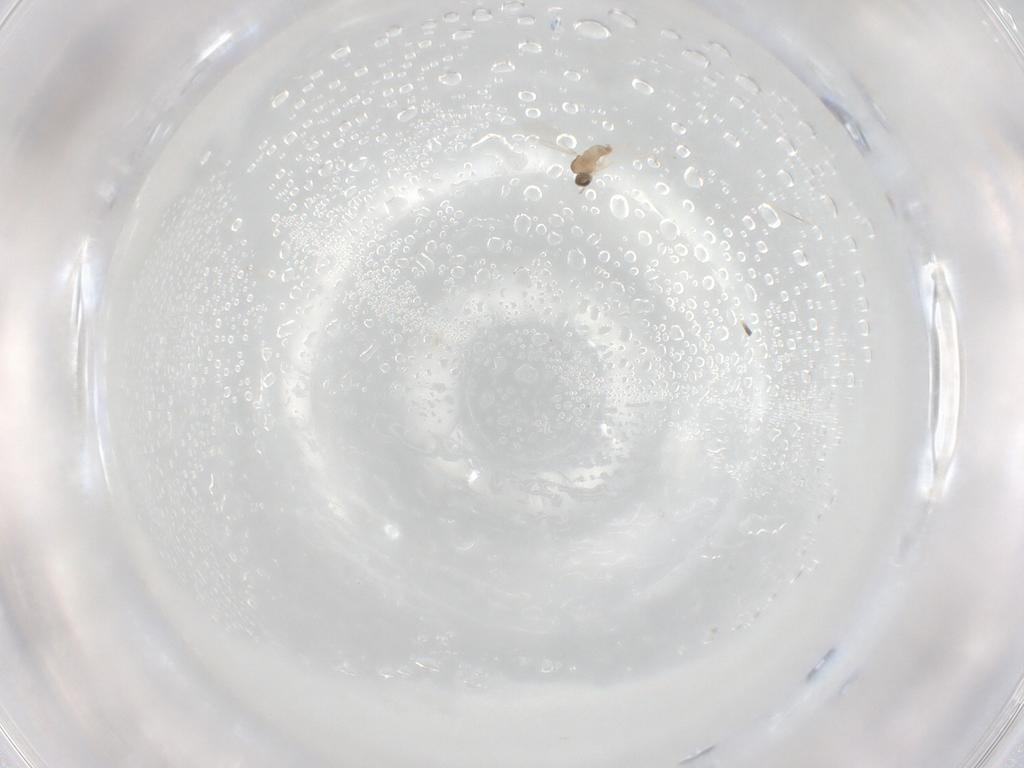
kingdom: Animalia
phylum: Arthropoda
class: Insecta
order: Diptera
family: Cecidomyiidae
